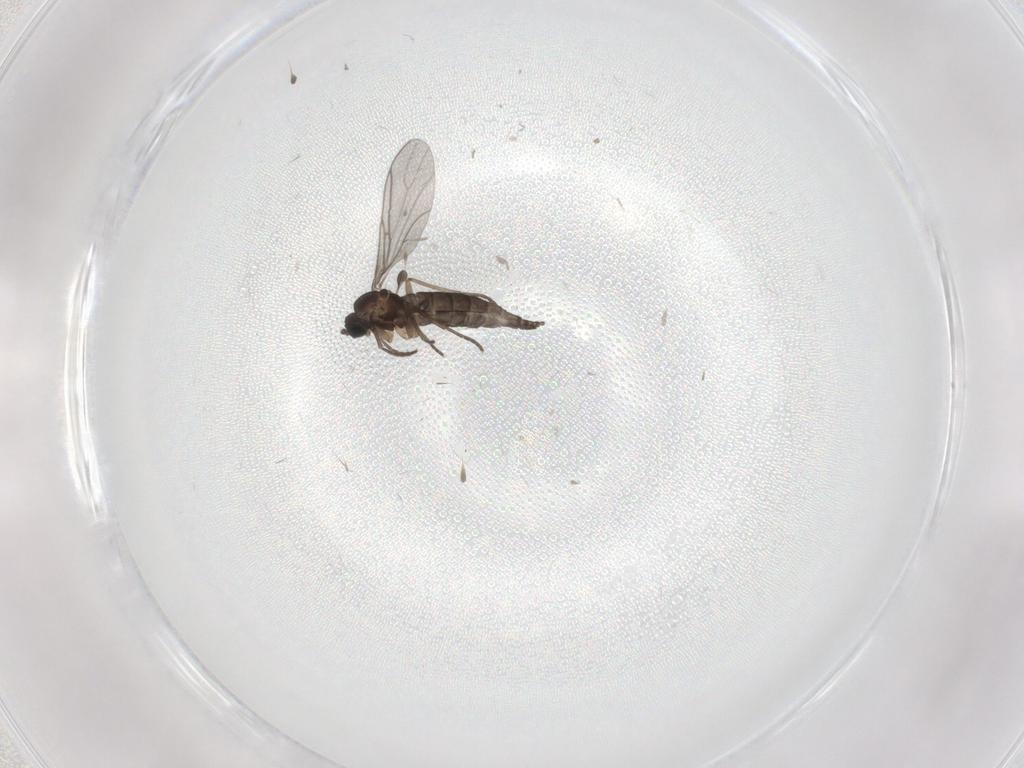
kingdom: Animalia
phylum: Arthropoda
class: Insecta
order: Diptera
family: Cecidomyiidae
